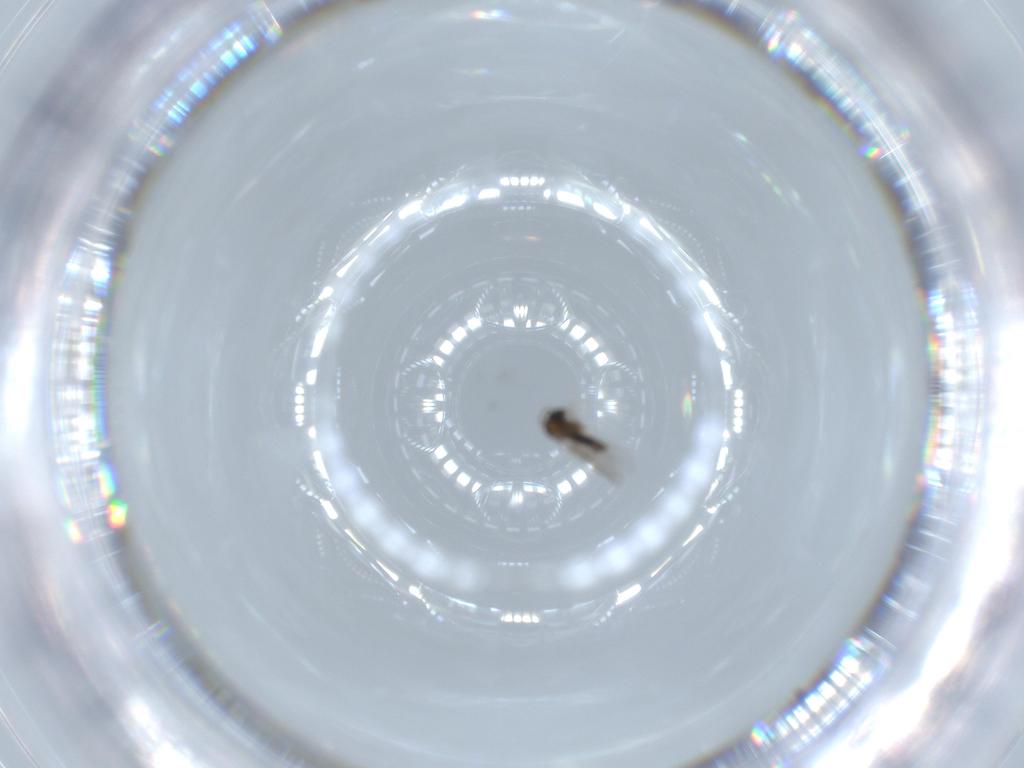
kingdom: Animalia
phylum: Arthropoda
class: Insecta
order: Diptera
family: Cecidomyiidae
